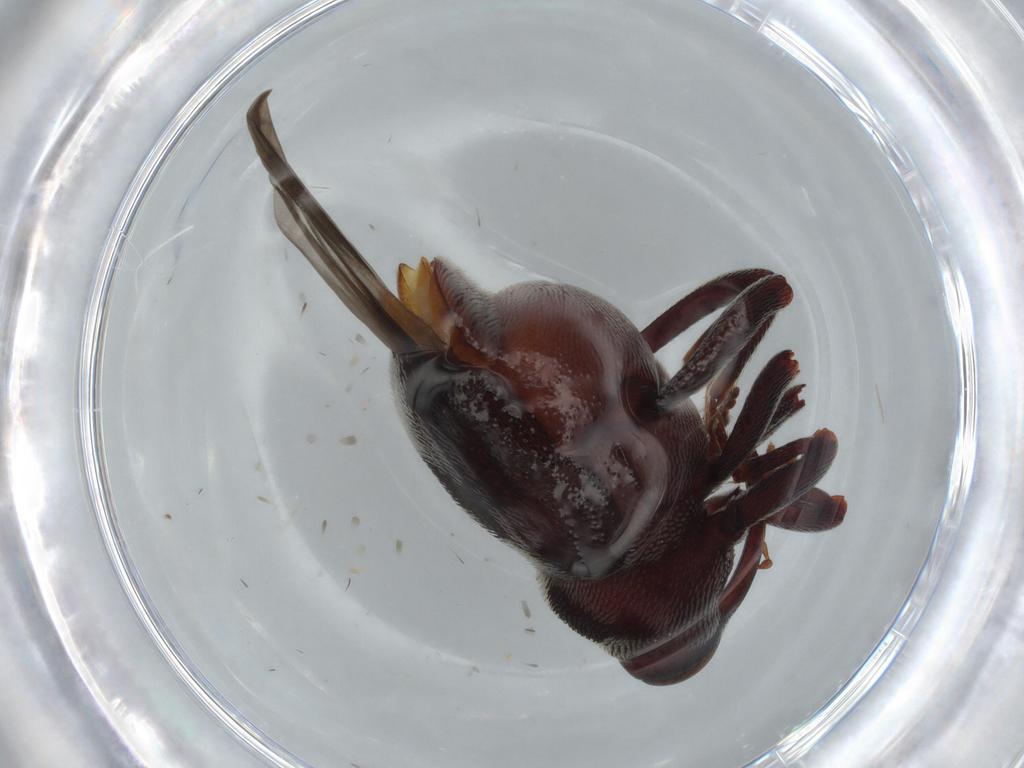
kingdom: Animalia
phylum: Arthropoda
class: Insecta
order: Coleoptera
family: Curculionidae
